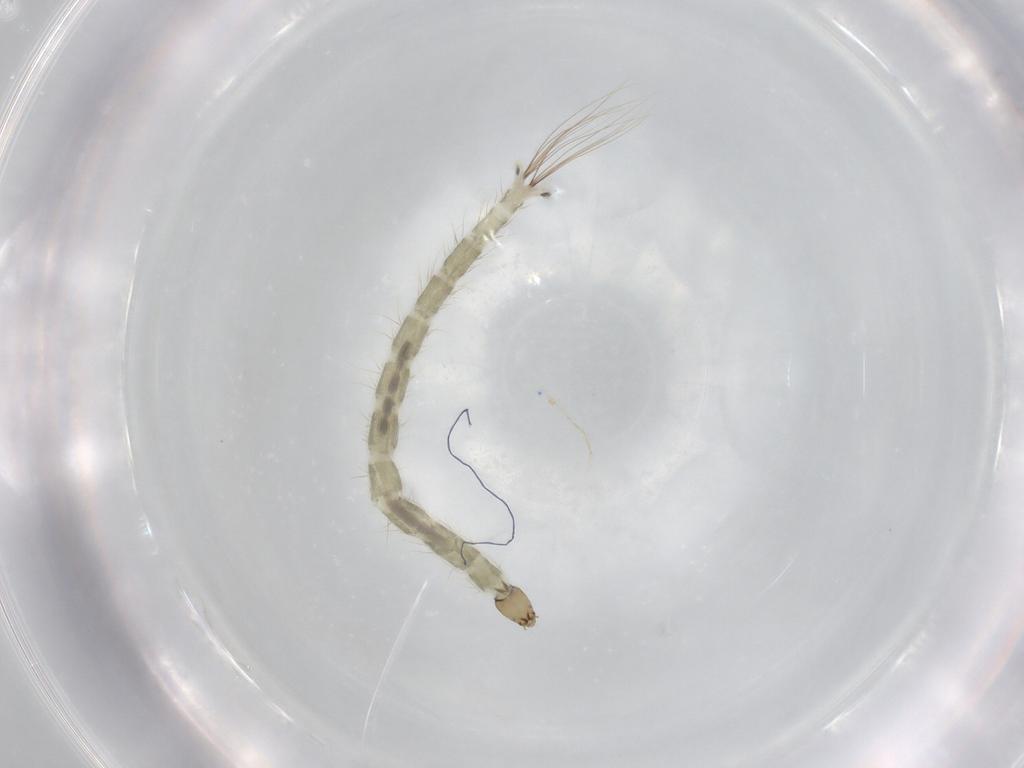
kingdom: Animalia
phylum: Arthropoda
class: Insecta
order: Diptera
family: Chironomidae
